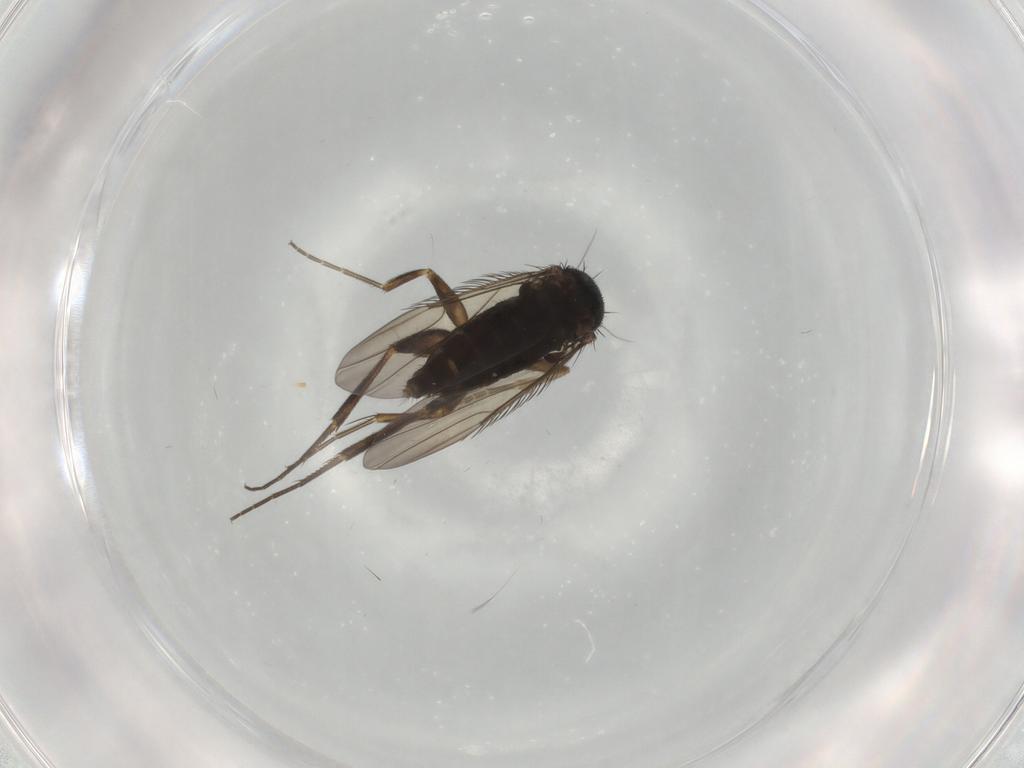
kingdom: Animalia
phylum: Arthropoda
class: Insecta
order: Diptera
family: Phoridae
